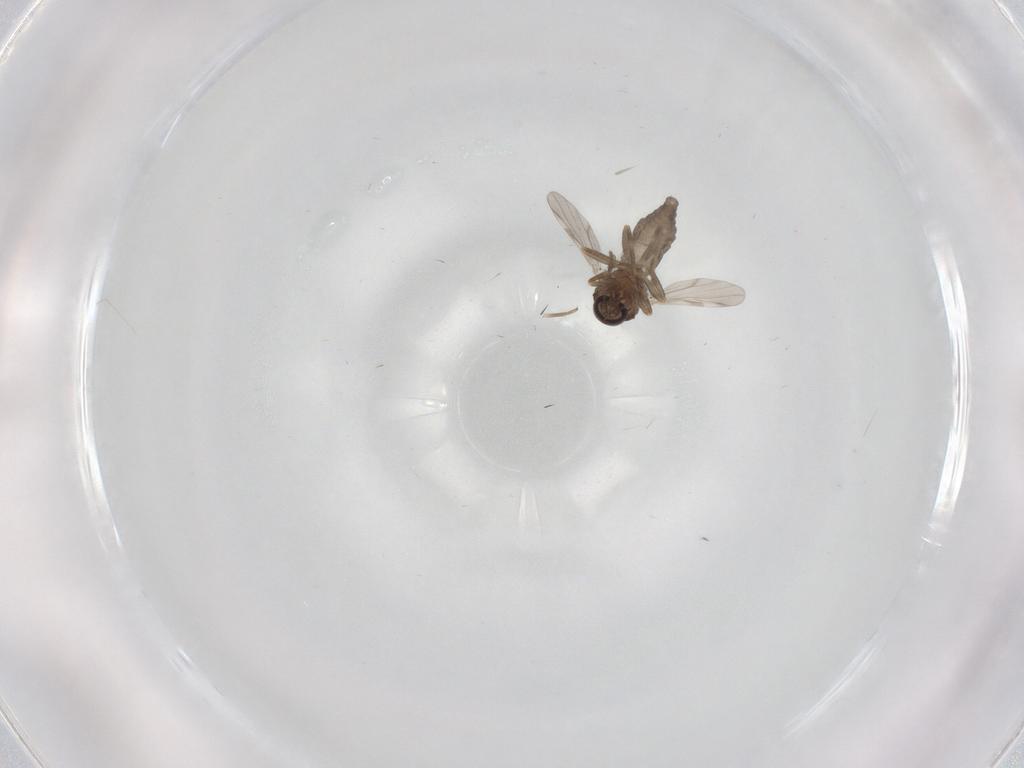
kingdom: Animalia
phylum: Arthropoda
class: Insecta
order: Diptera
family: Ceratopogonidae
